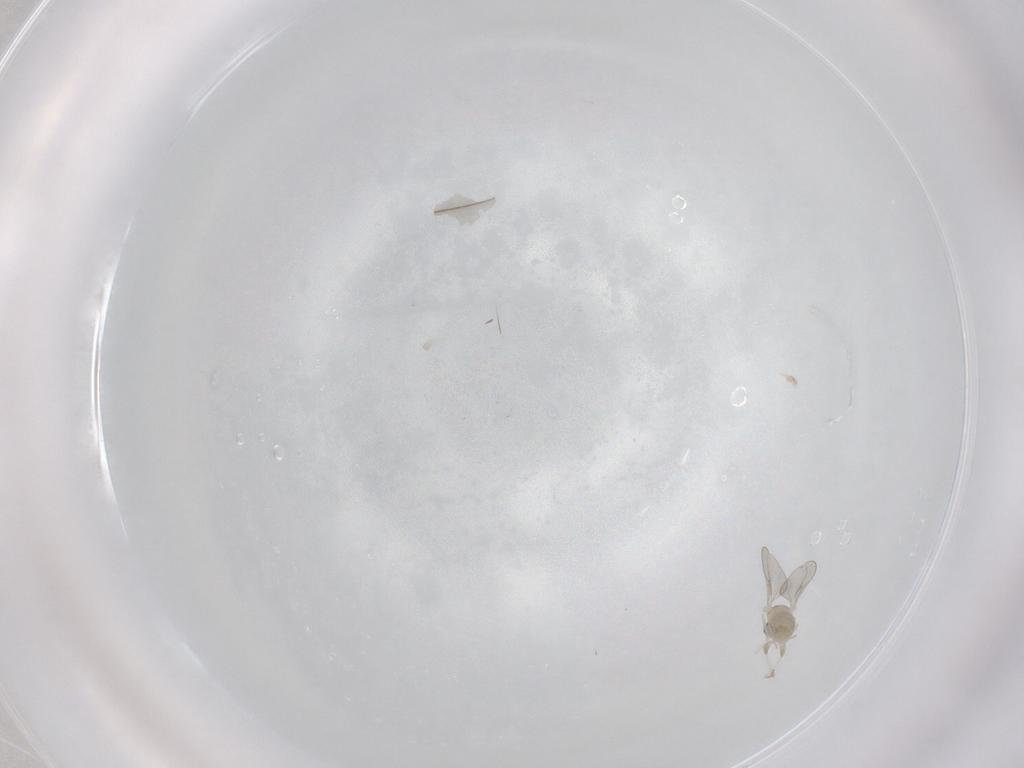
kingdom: Animalia
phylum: Arthropoda
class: Insecta
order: Diptera
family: Cecidomyiidae
